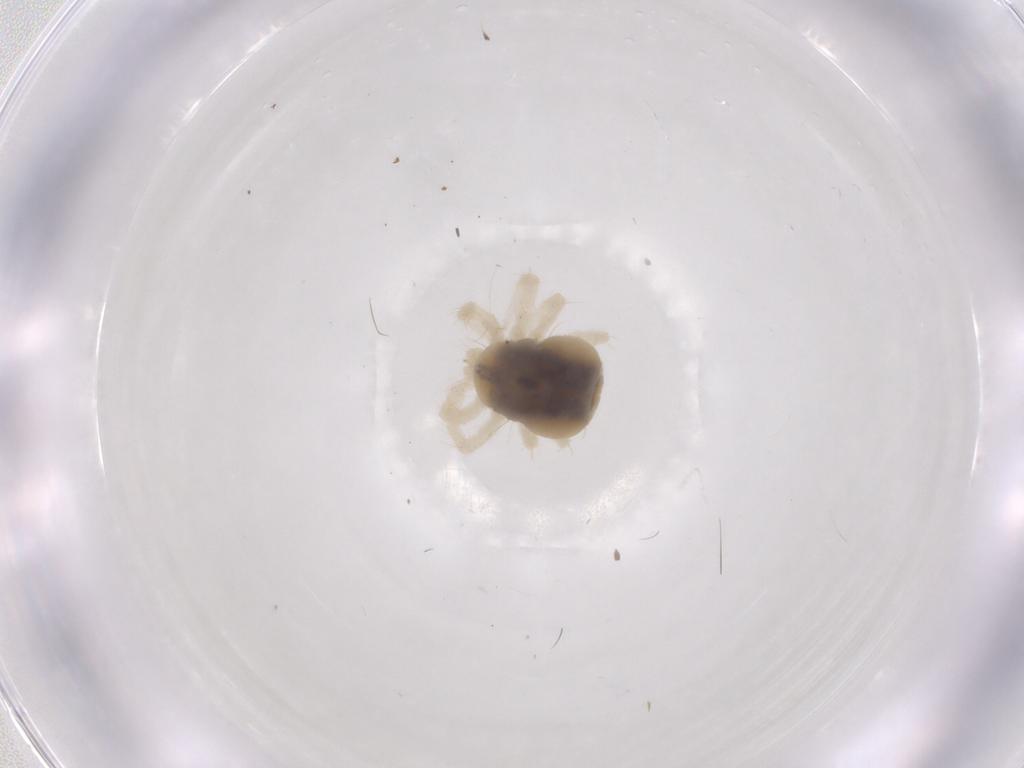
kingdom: Animalia
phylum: Arthropoda
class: Arachnida
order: Trombidiformes
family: Anystidae
